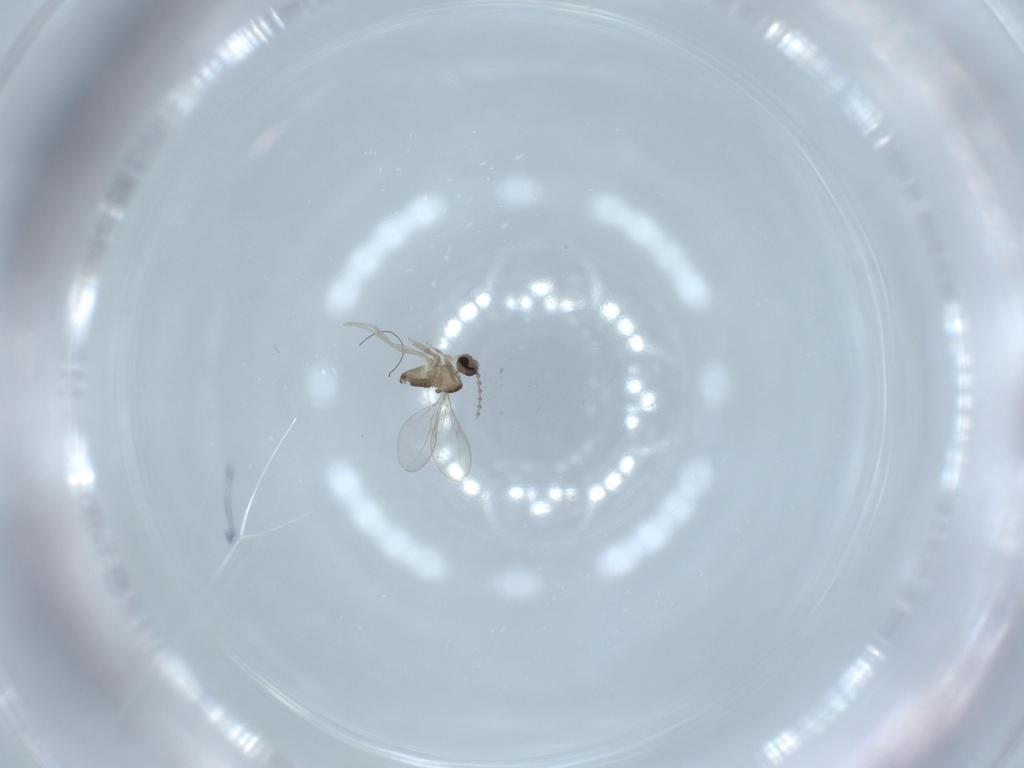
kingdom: Animalia
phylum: Arthropoda
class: Insecta
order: Diptera
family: Cecidomyiidae
